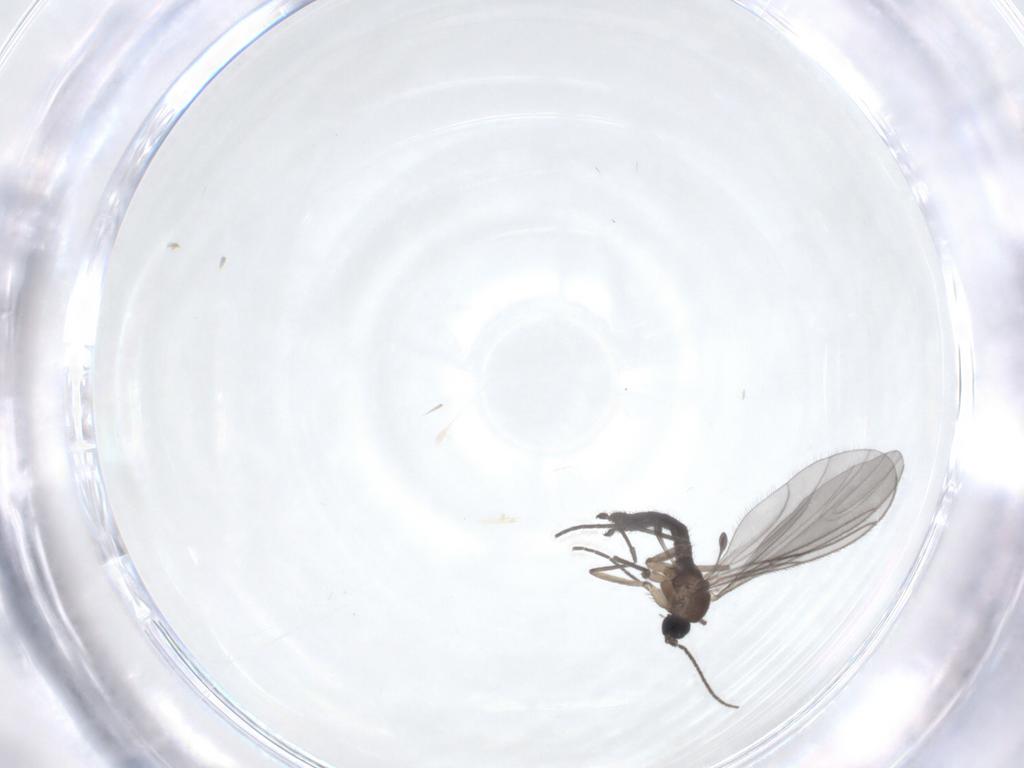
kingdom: Animalia
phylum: Arthropoda
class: Insecta
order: Diptera
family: Sciaridae
